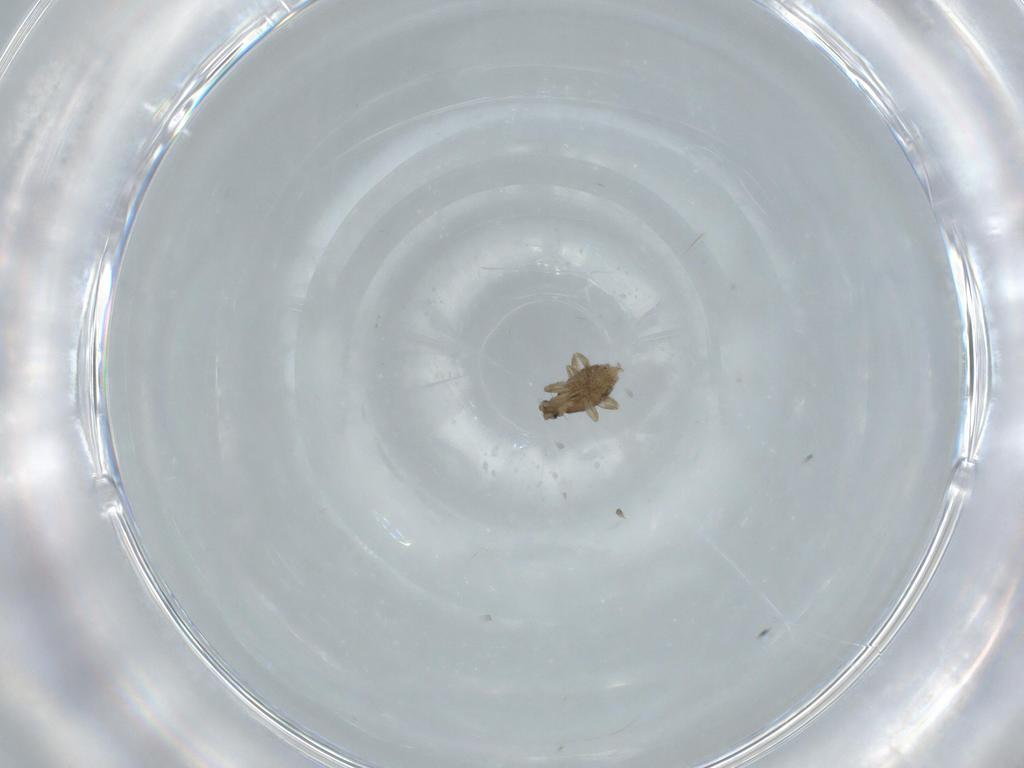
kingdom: Animalia
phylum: Arthropoda
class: Insecta
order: Diptera
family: Phoridae
